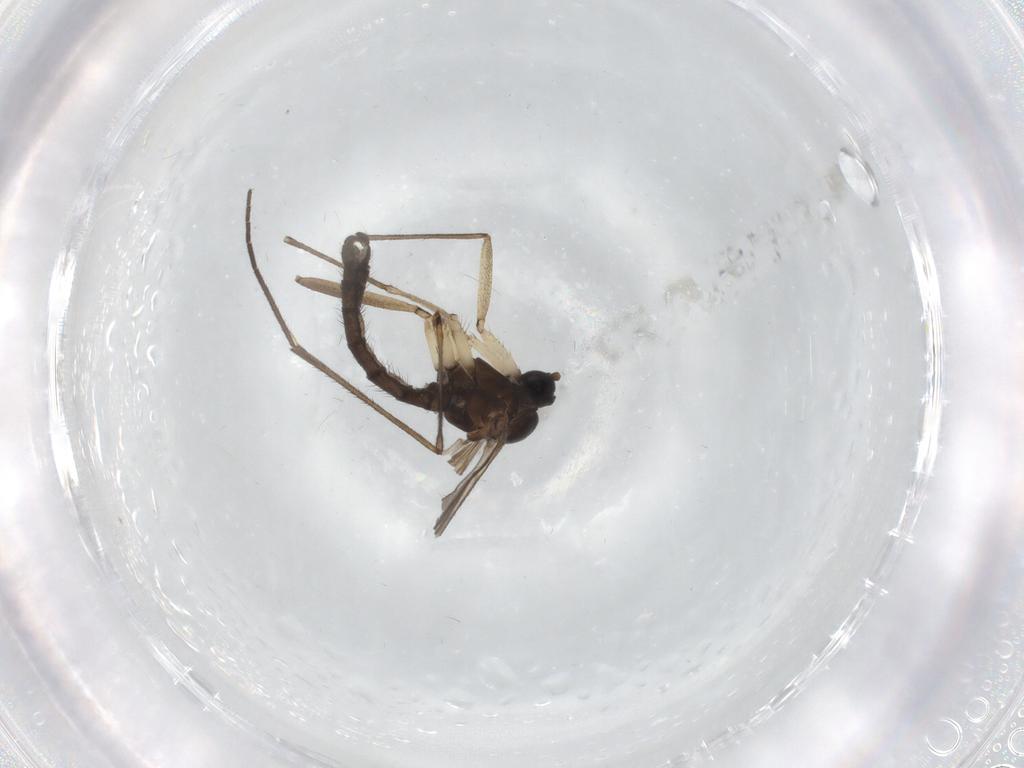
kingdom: Animalia
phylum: Arthropoda
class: Insecta
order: Diptera
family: Sciaridae
